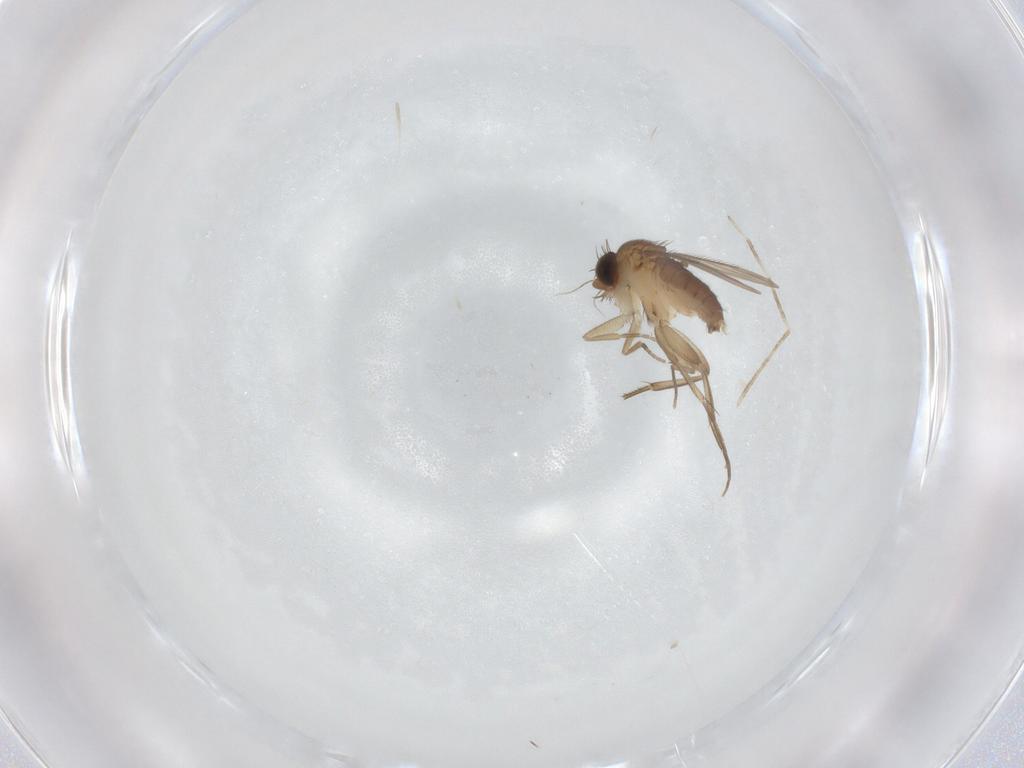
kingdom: Animalia
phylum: Arthropoda
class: Insecta
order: Diptera
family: Phoridae
